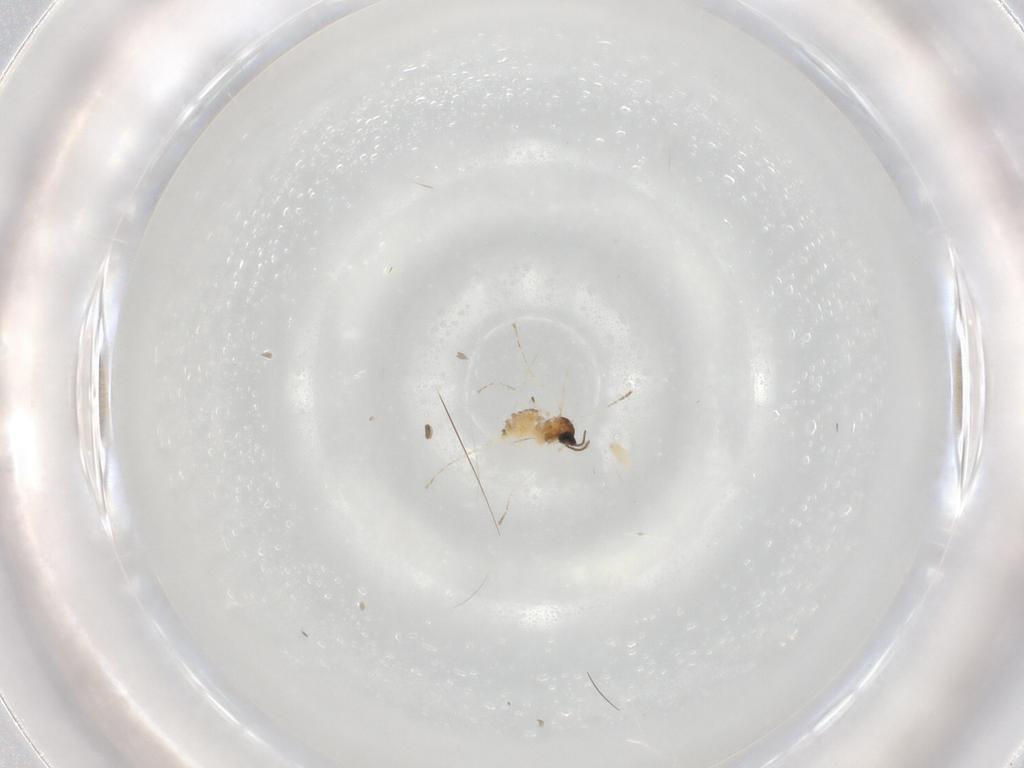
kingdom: Animalia
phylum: Arthropoda
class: Insecta
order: Diptera
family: Cecidomyiidae
